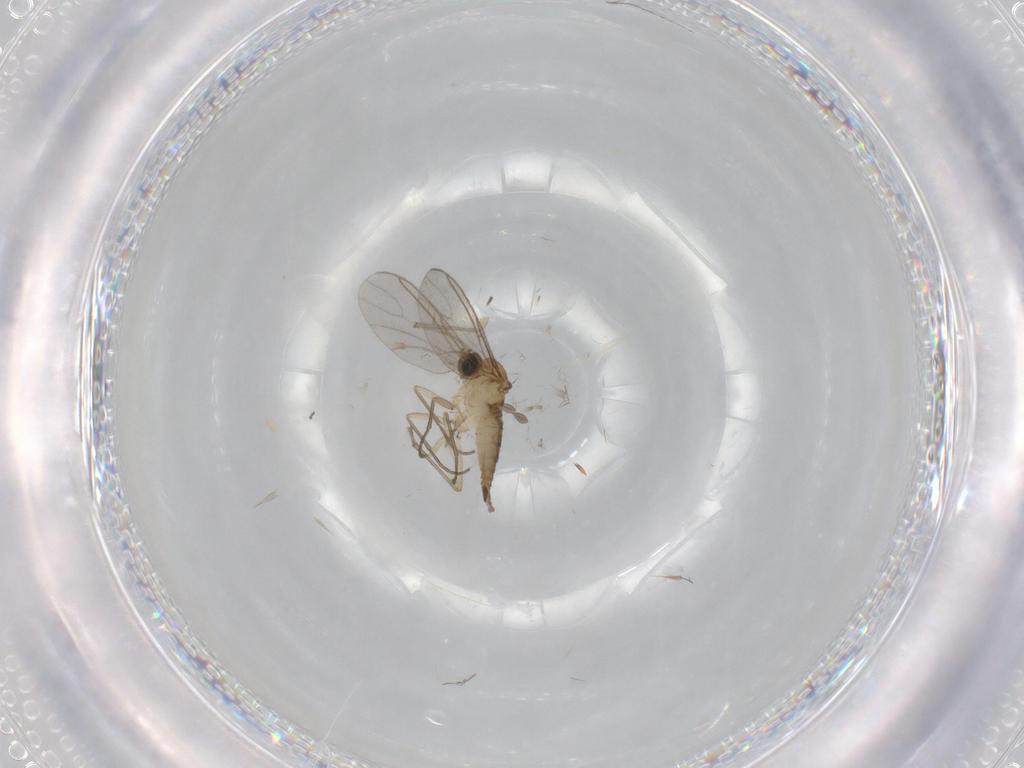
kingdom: Animalia
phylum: Arthropoda
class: Insecta
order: Diptera
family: Sciaridae
